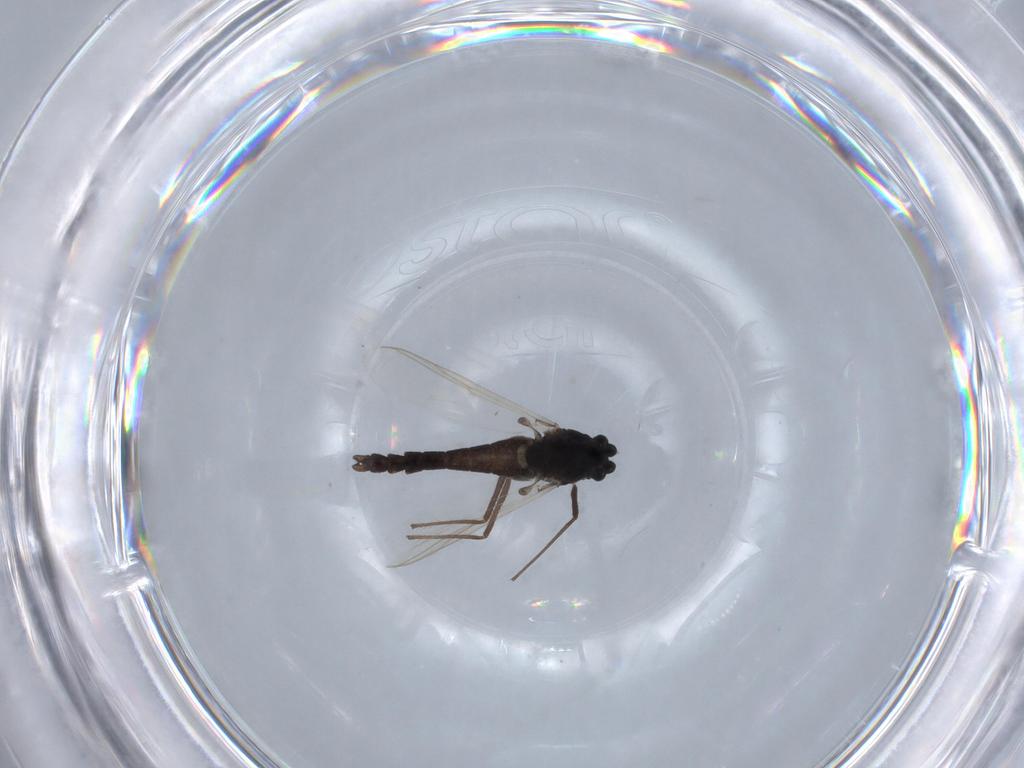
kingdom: Animalia
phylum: Arthropoda
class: Insecta
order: Diptera
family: Chironomidae
